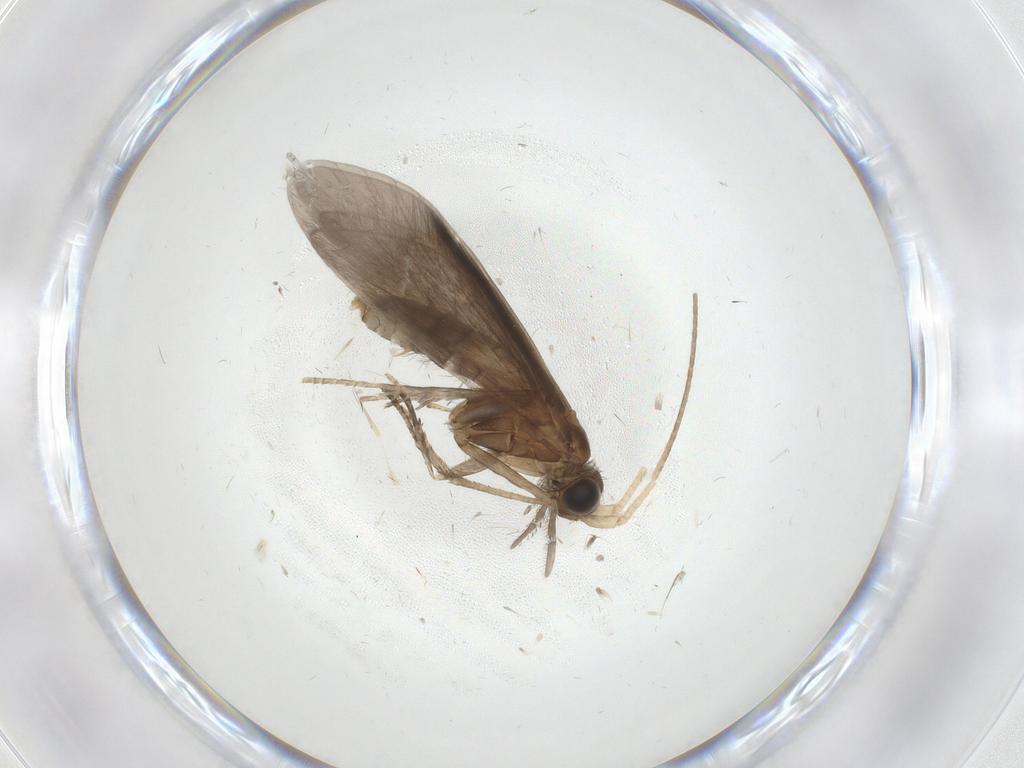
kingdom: Animalia
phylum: Arthropoda
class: Insecta
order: Trichoptera
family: Helicopsychidae
